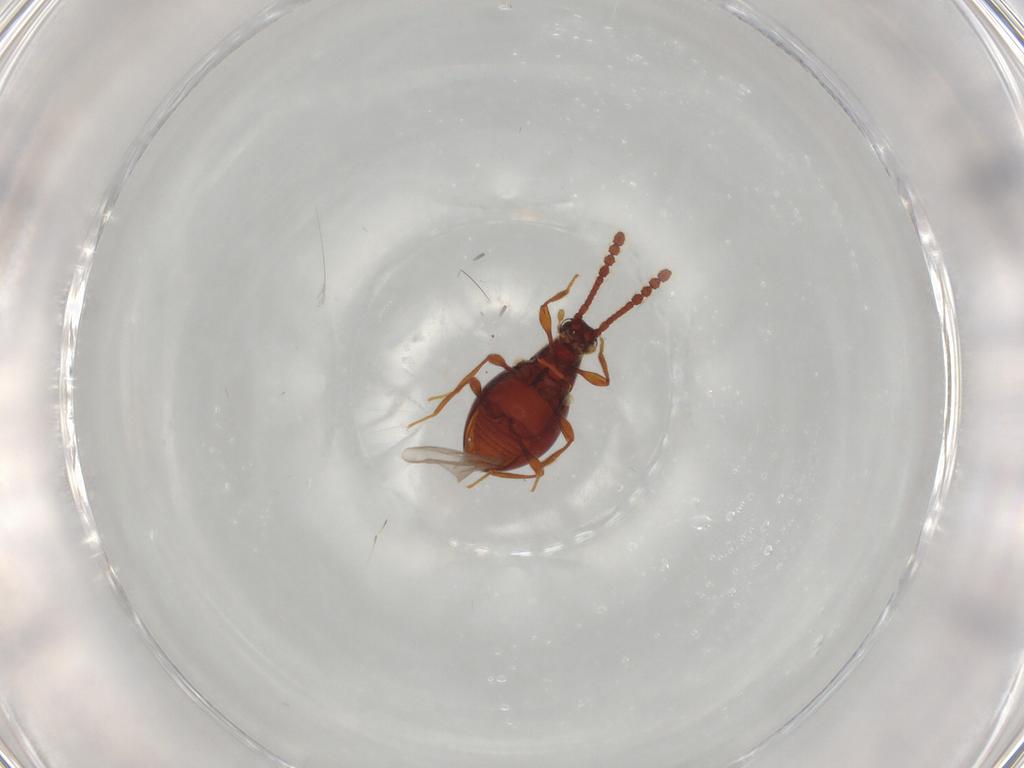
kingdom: Animalia
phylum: Arthropoda
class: Insecta
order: Coleoptera
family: Staphylinidae
